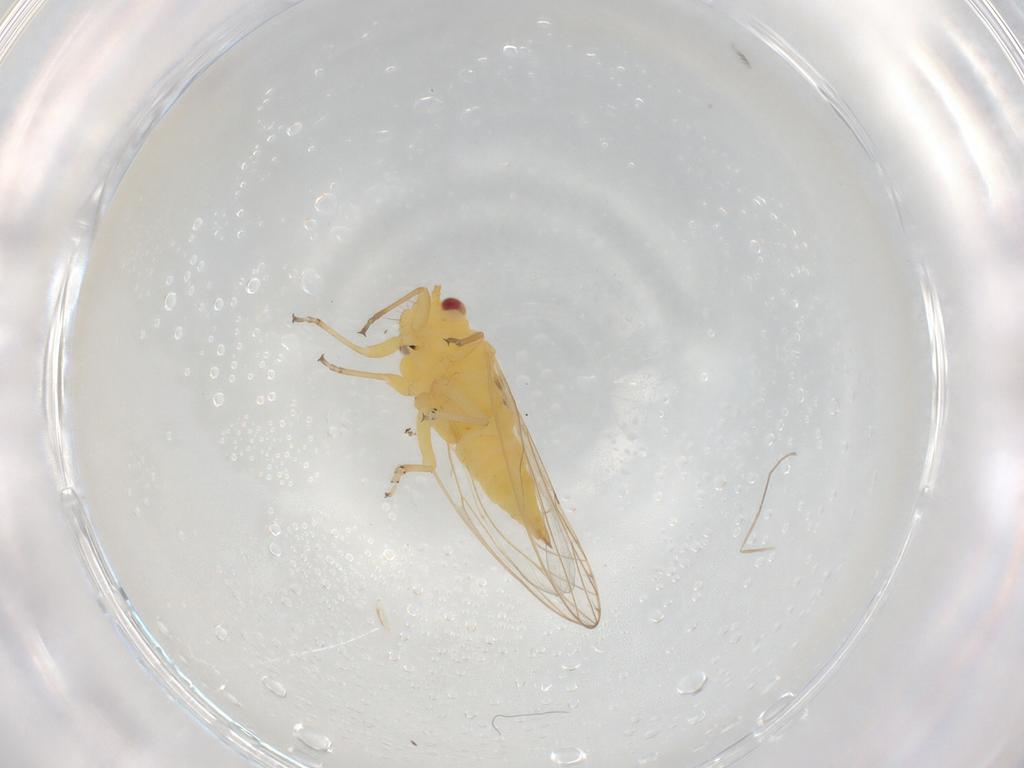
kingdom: Animalia
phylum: Arthropoda
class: Insecta
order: Hemiptera
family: Psyllidae
